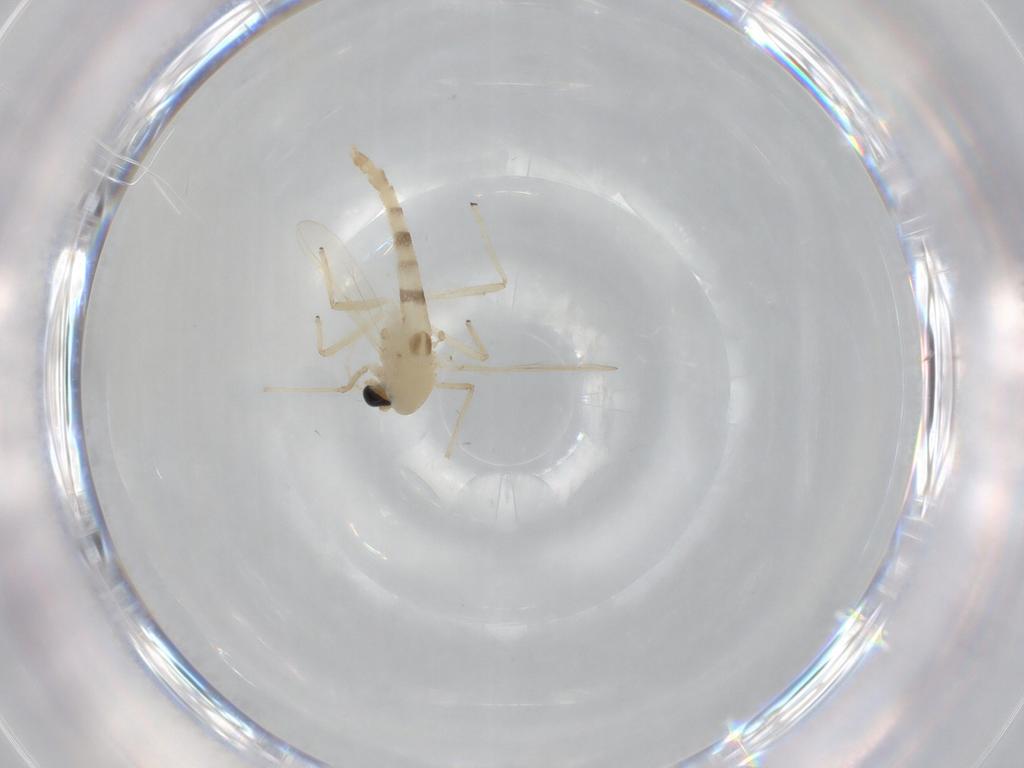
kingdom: Animalia
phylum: Arthropoda
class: Insecta
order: Diptera
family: Chironomidae
